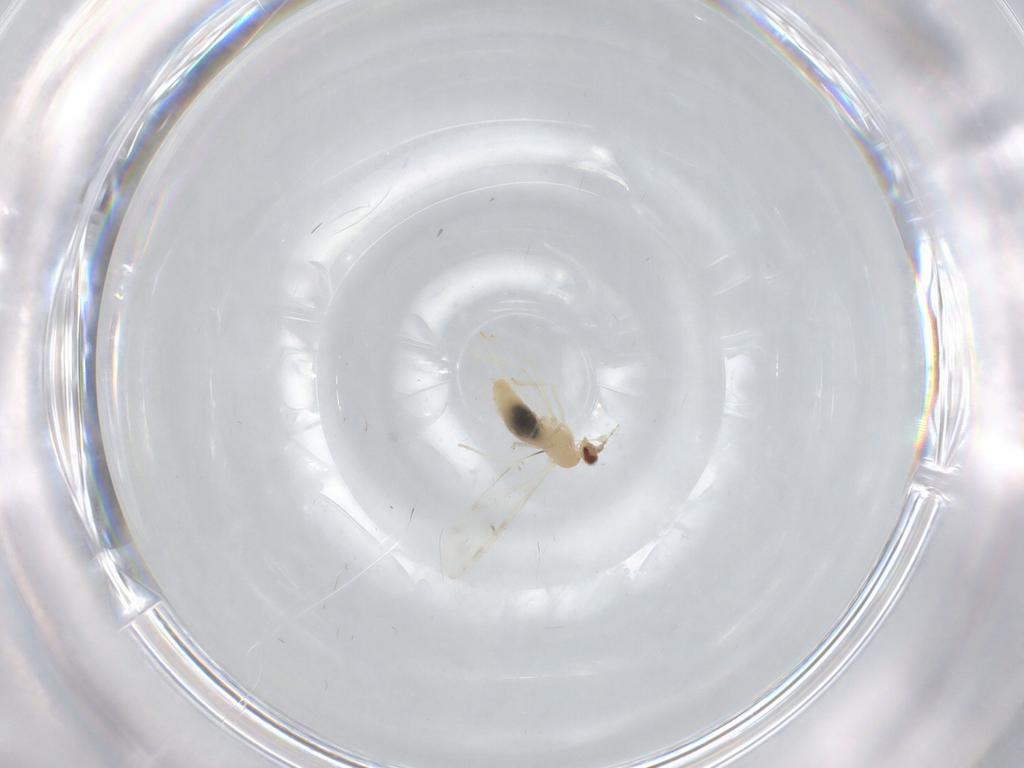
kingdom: Animalia
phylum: Arthropoda
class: Insecta
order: Diptera
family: Cecidomyiidae
